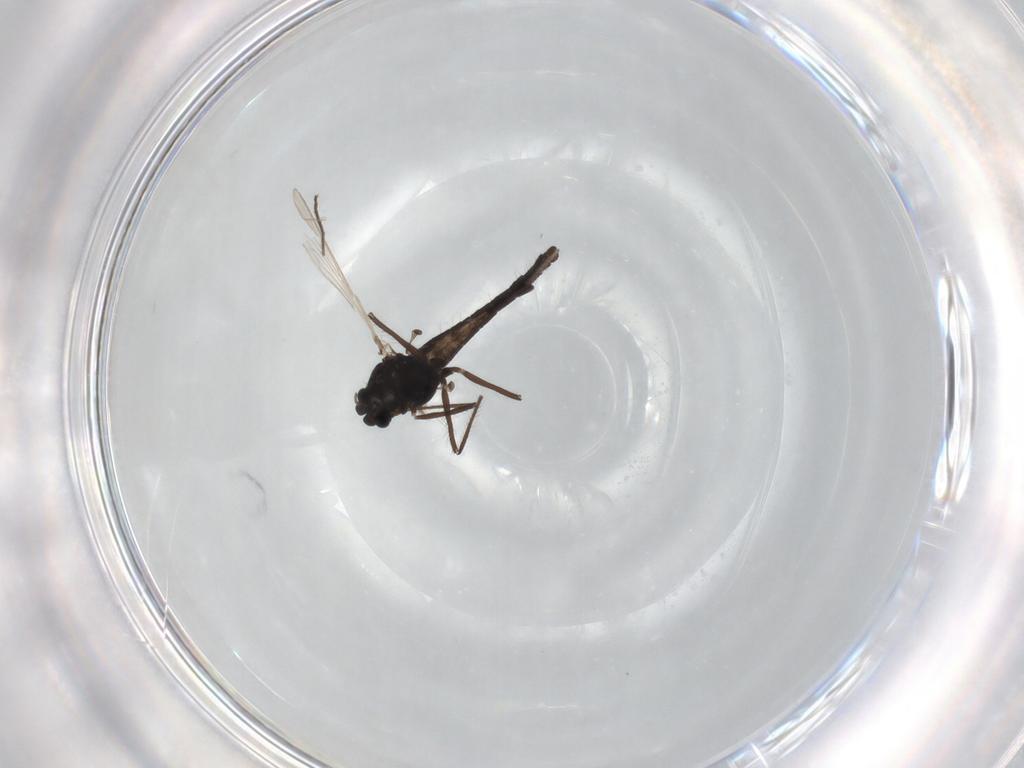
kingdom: Animalia
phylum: Arthropoda
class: Insecta
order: Diptera
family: Chironomidae
